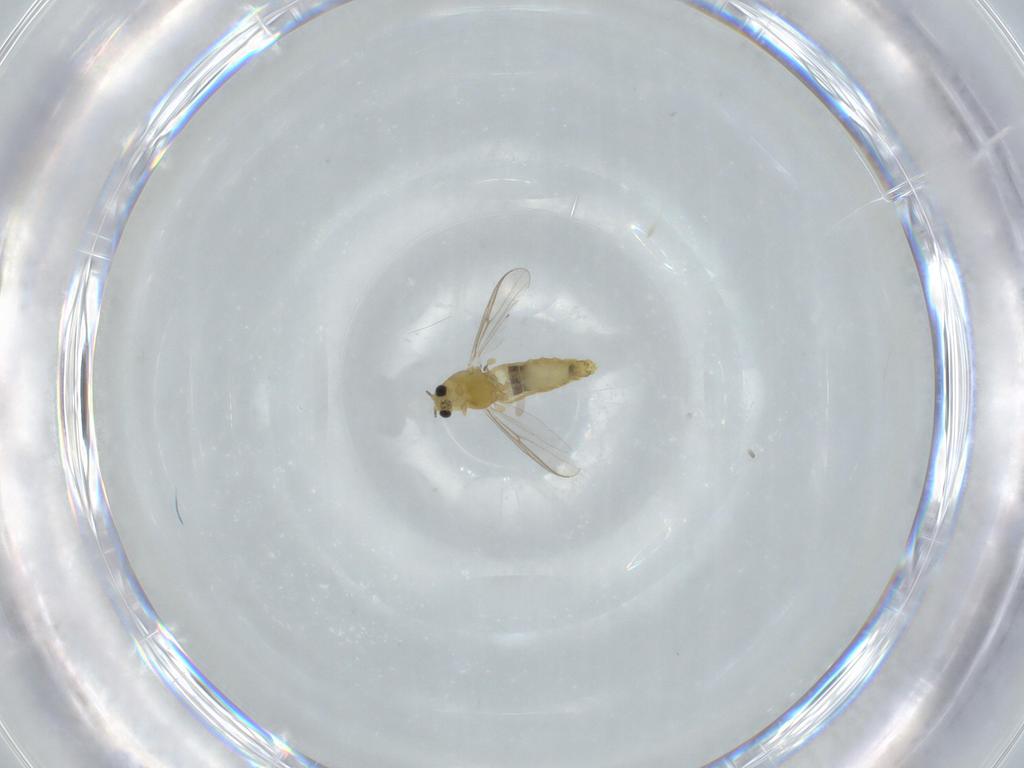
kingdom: Animalia
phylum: Arthropoda
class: Insecta
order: Diptera
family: Chironomidae
